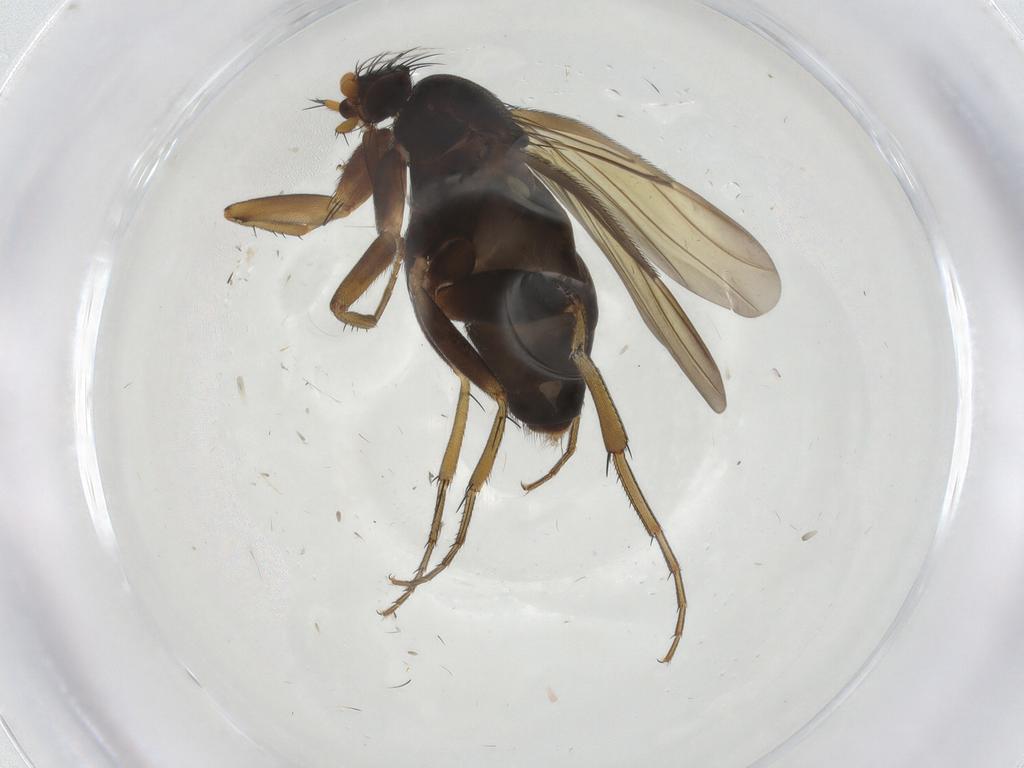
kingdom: Animalia
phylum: Arthropoda
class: Insecta
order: Diptera
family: Phoridae
